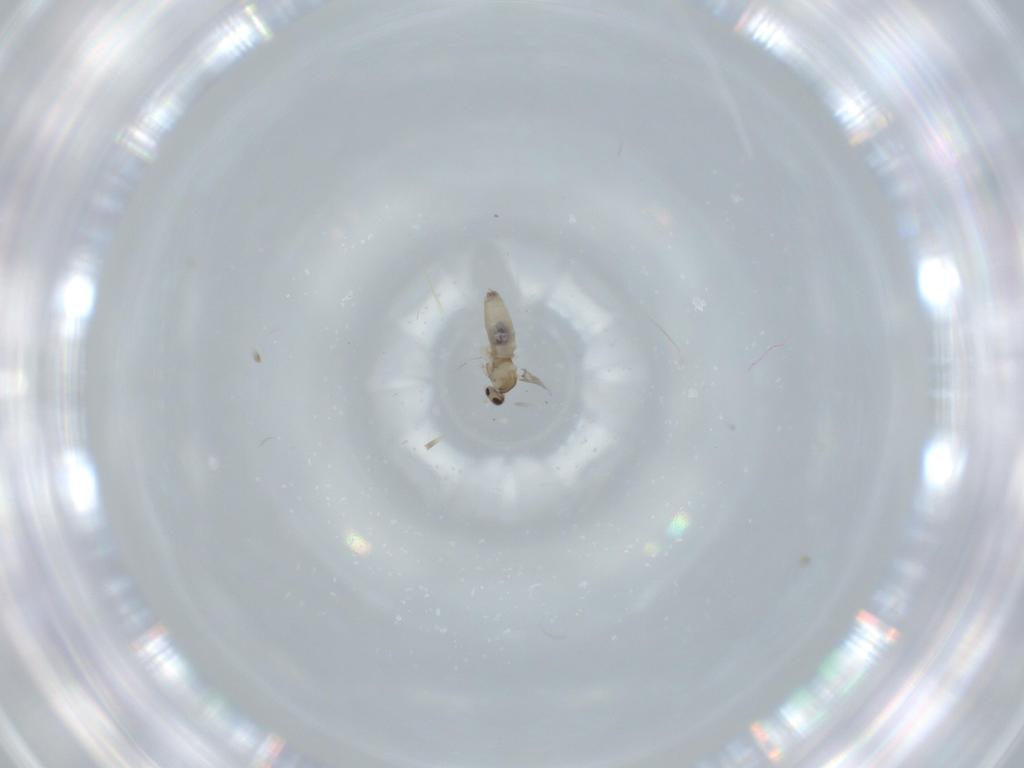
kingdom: Animalia
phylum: Arthropoda
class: Insecta
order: Diptera
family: Cecidomyiidae
